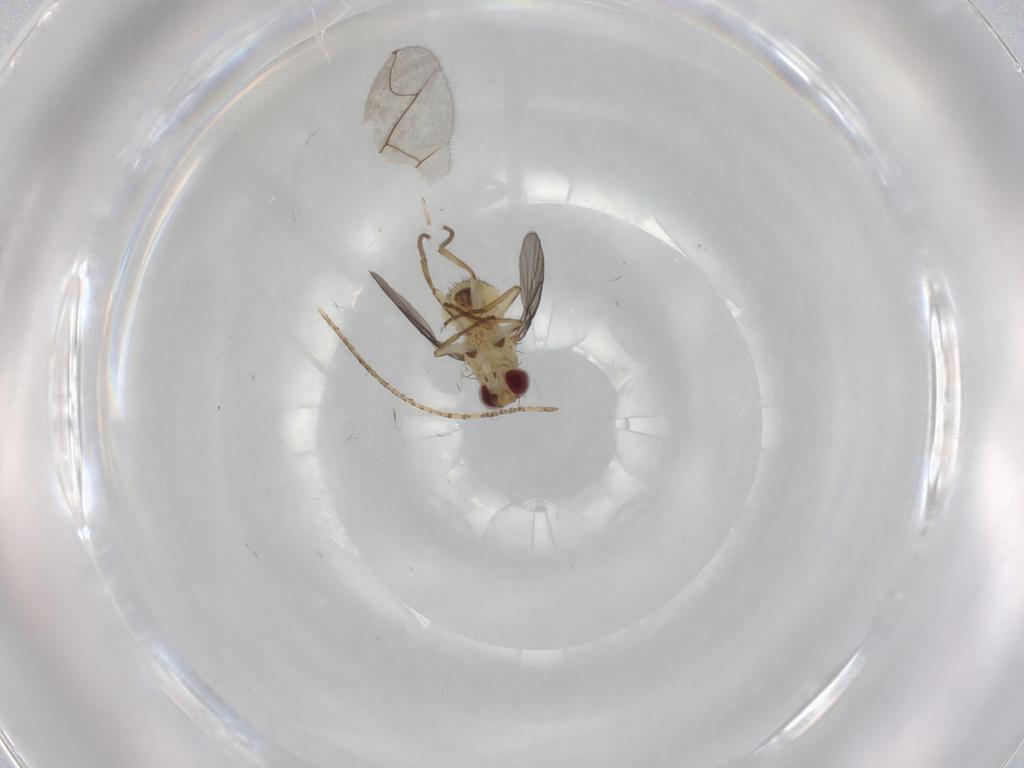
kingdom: Animalia
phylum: Arthropoda
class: Insecta
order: Diptera
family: Agromyzidae
